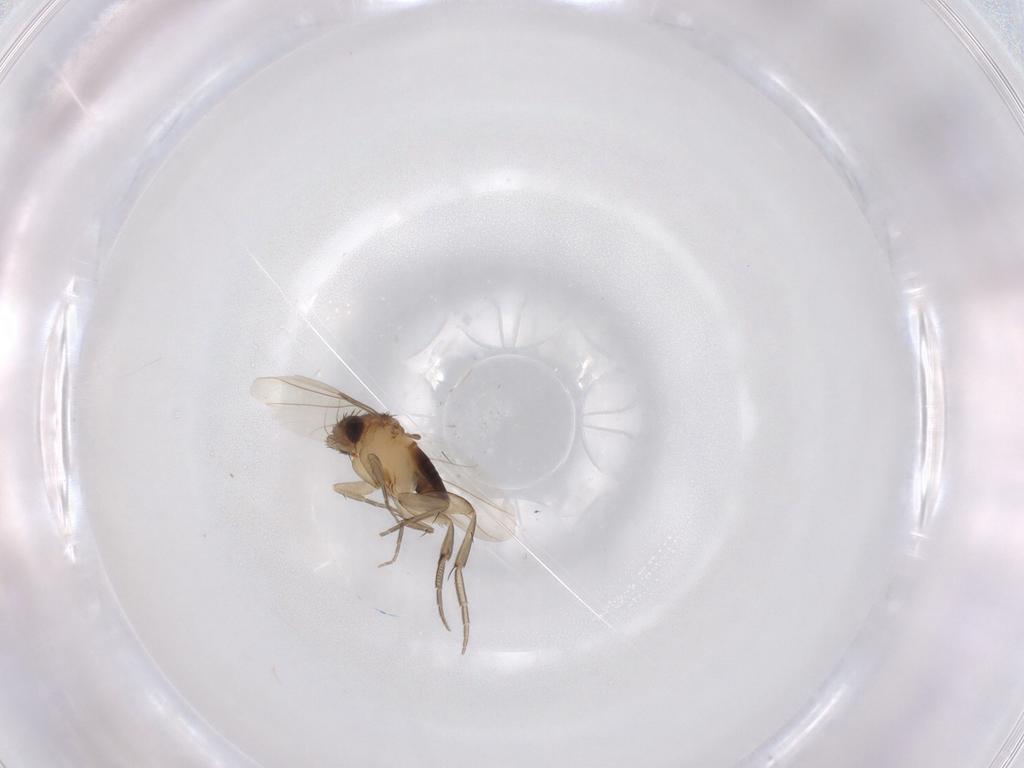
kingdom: Animalia
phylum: Arthropoda
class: Insecta
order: Diptera
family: Phoridae
